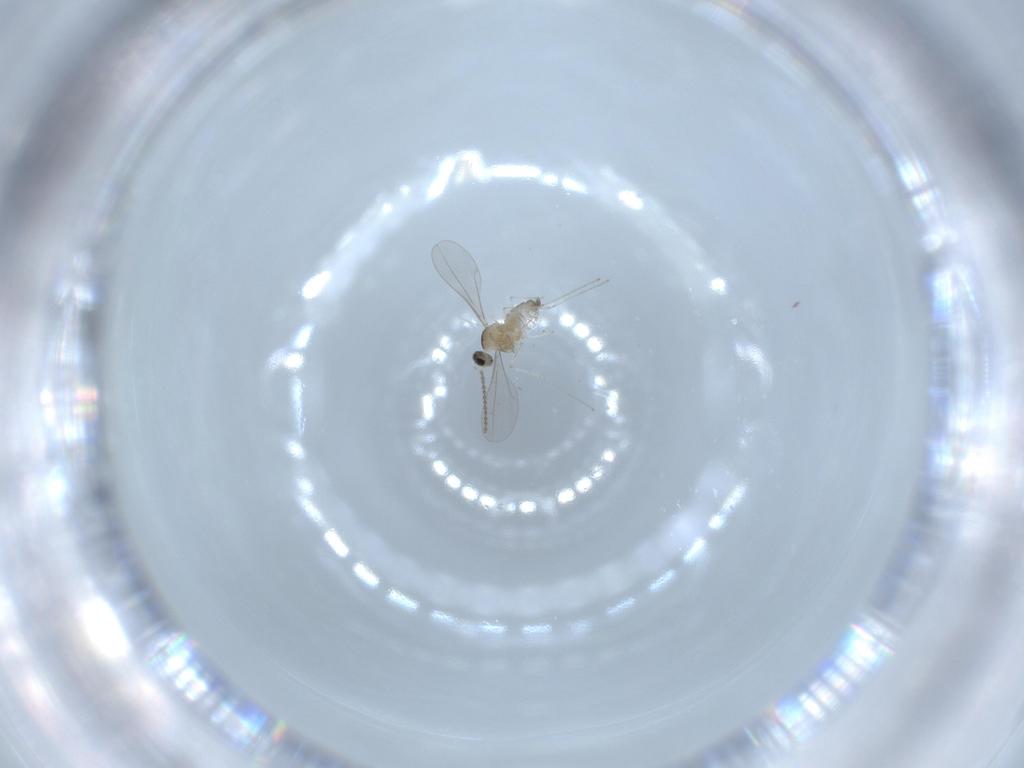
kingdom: Animalia
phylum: Arthropoda
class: Insecta
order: Diptera
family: Cecidomyiidae
